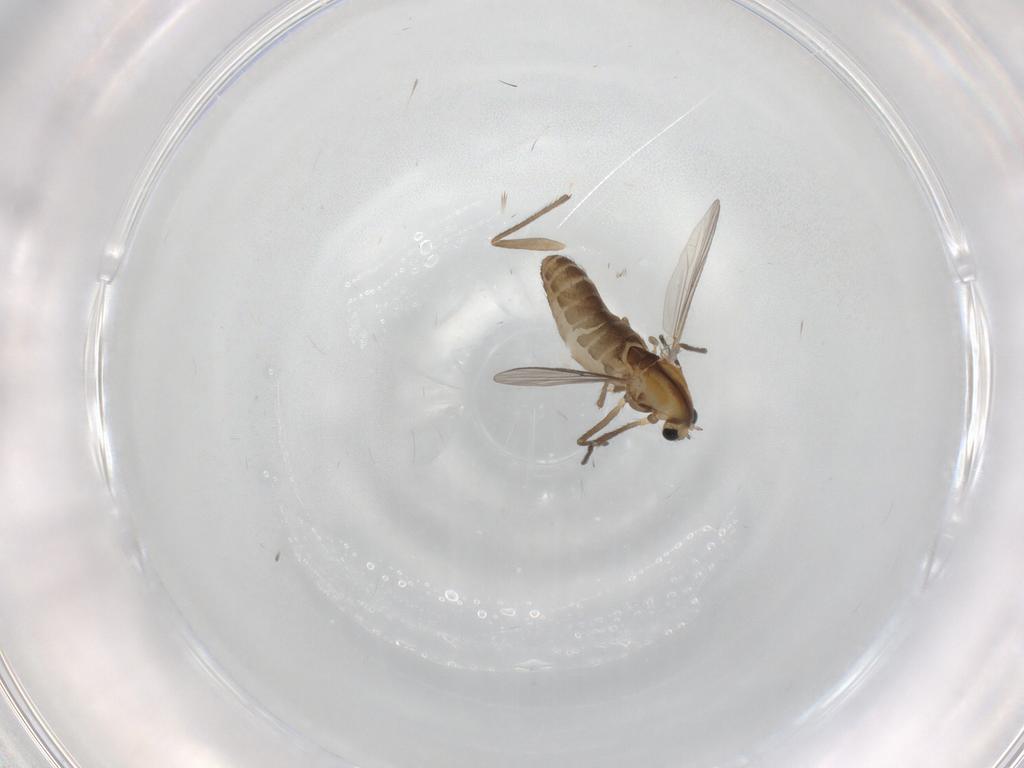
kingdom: Animalia
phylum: Arthropoda
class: Insecta
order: Diptera
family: Chironomidae
